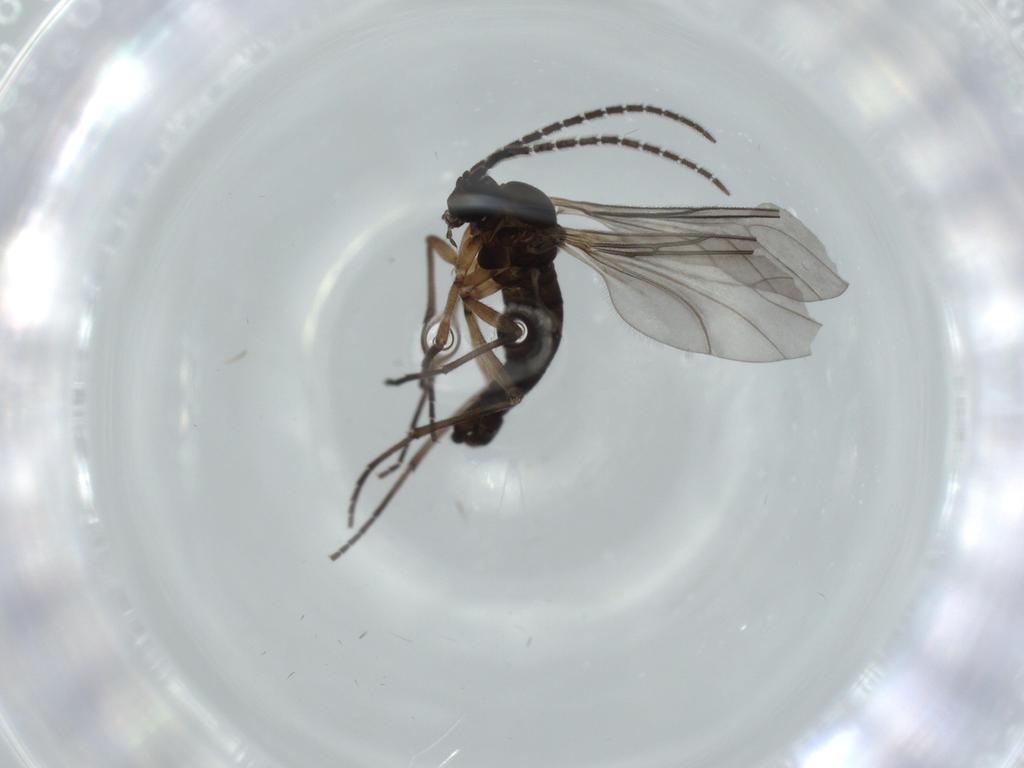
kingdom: Animalia
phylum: Arthropoda
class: Insecta
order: Diptera
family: Sciaridae
